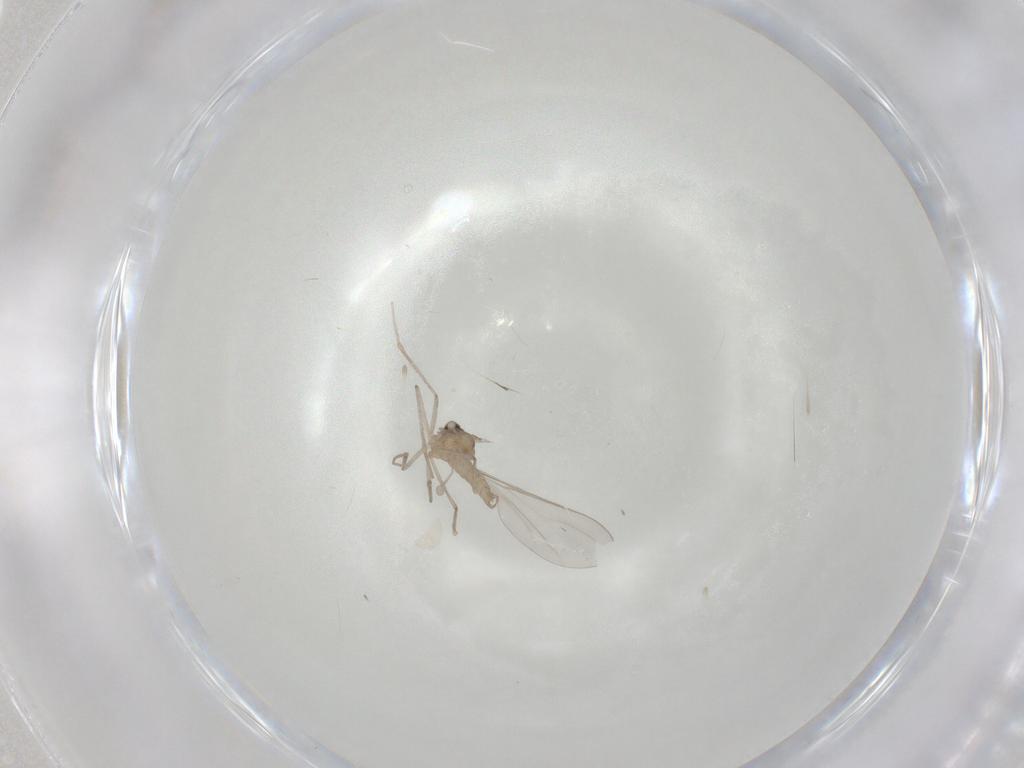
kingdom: Animalia
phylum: Arthropoda
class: Insecta
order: Diptera
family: Cecidomyiidae
